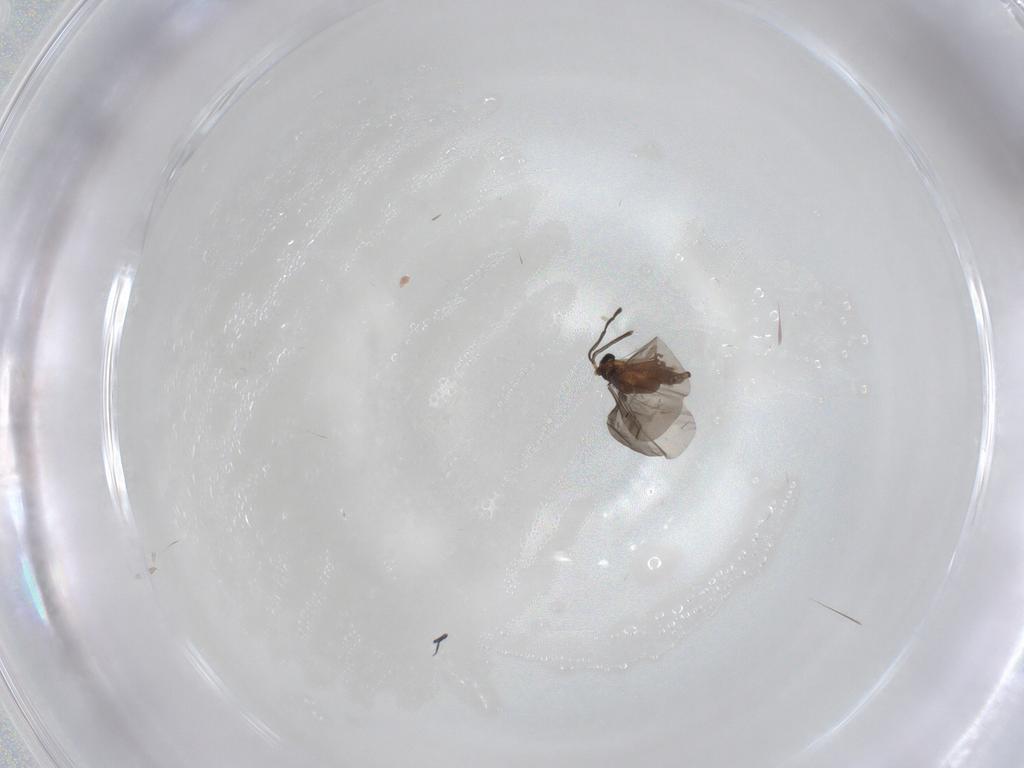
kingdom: Animalia
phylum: Arthropoda
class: Insecta
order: Strepsiptera
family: Myrmecolacidae
